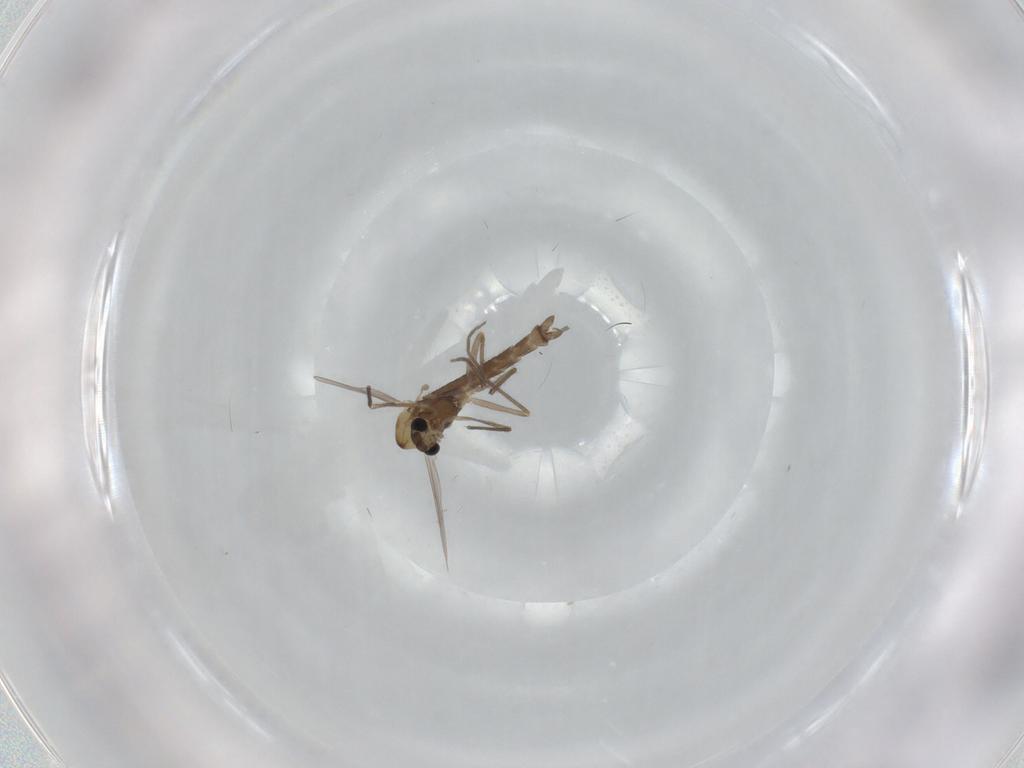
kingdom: Animalia
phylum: Arthropoda
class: Insecta
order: Diptera
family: Chironomidae
